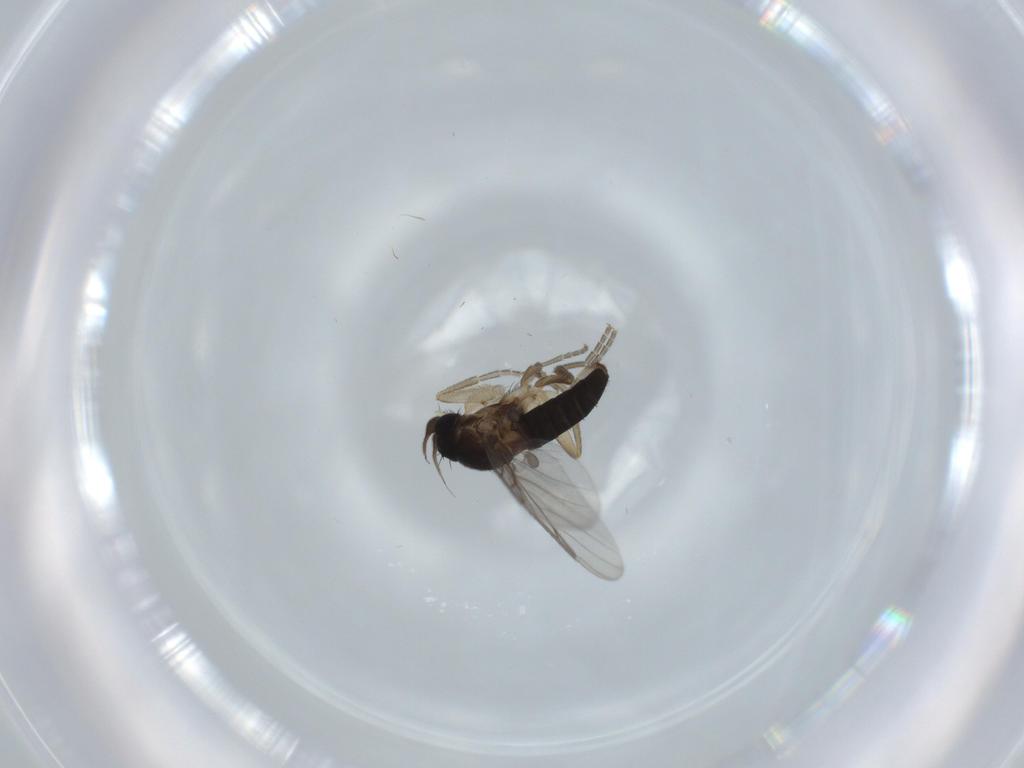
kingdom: Animalia
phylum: Arthropoda
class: Insecta
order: Diptera
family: Phoridae
